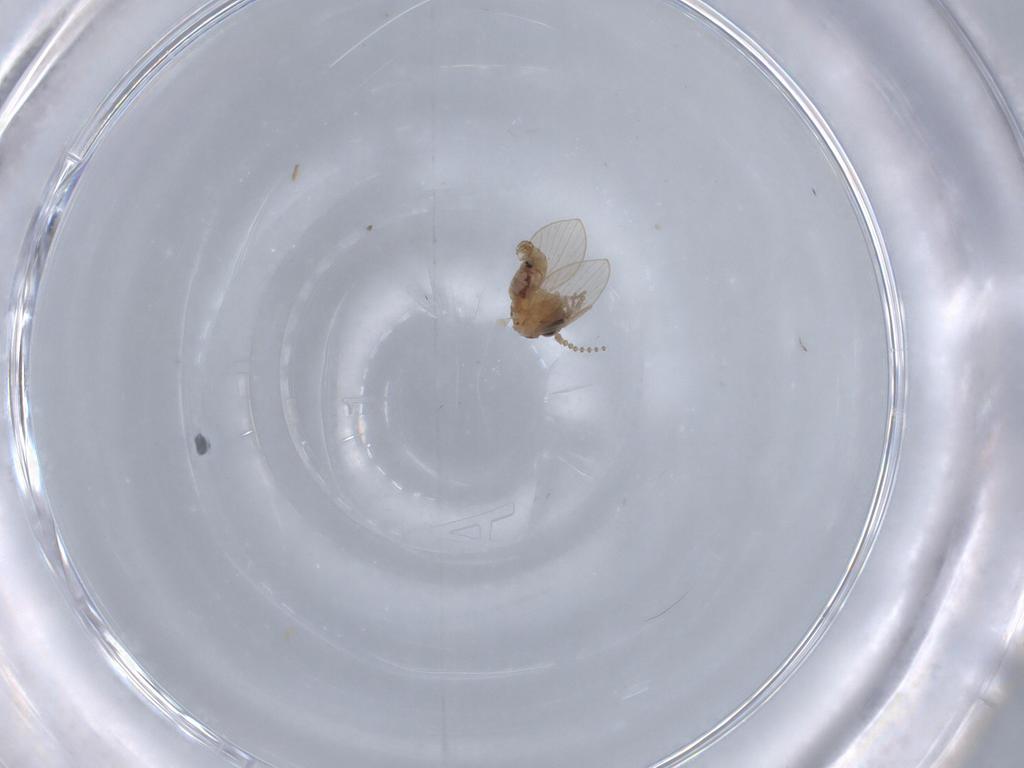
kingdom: Animalia
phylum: Arthropoda
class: Insecta
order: Diptera
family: Psychodidae
